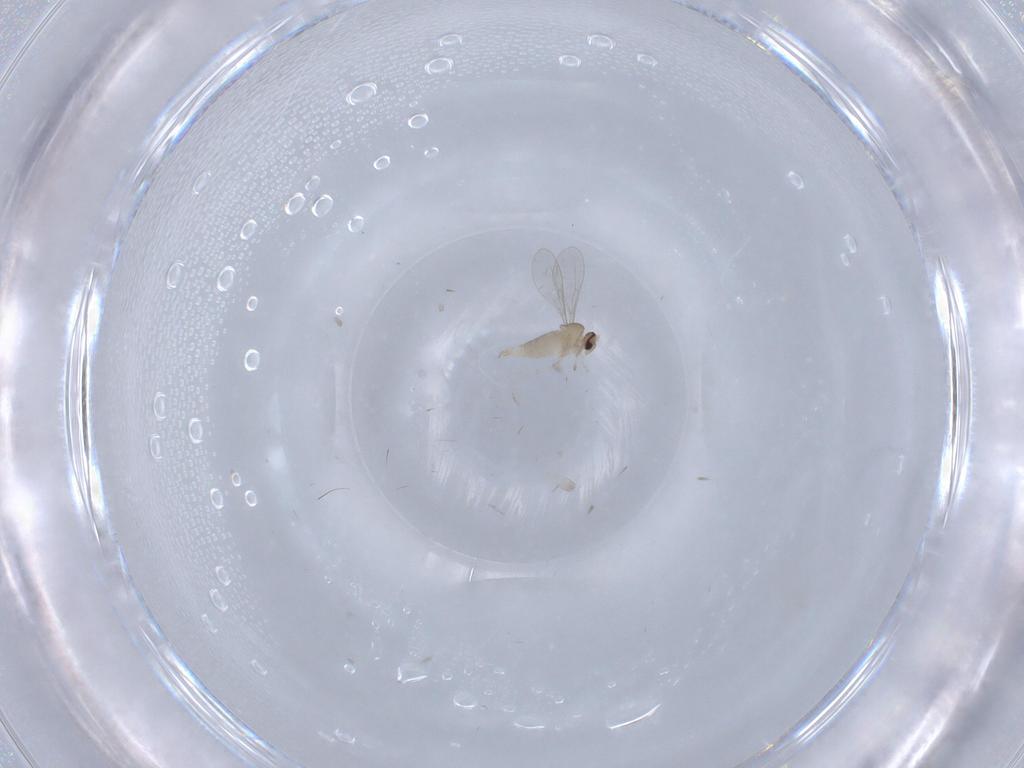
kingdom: Animalia
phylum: Arthropoda
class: Insecta
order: Diptera
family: Cecidomyiidae
